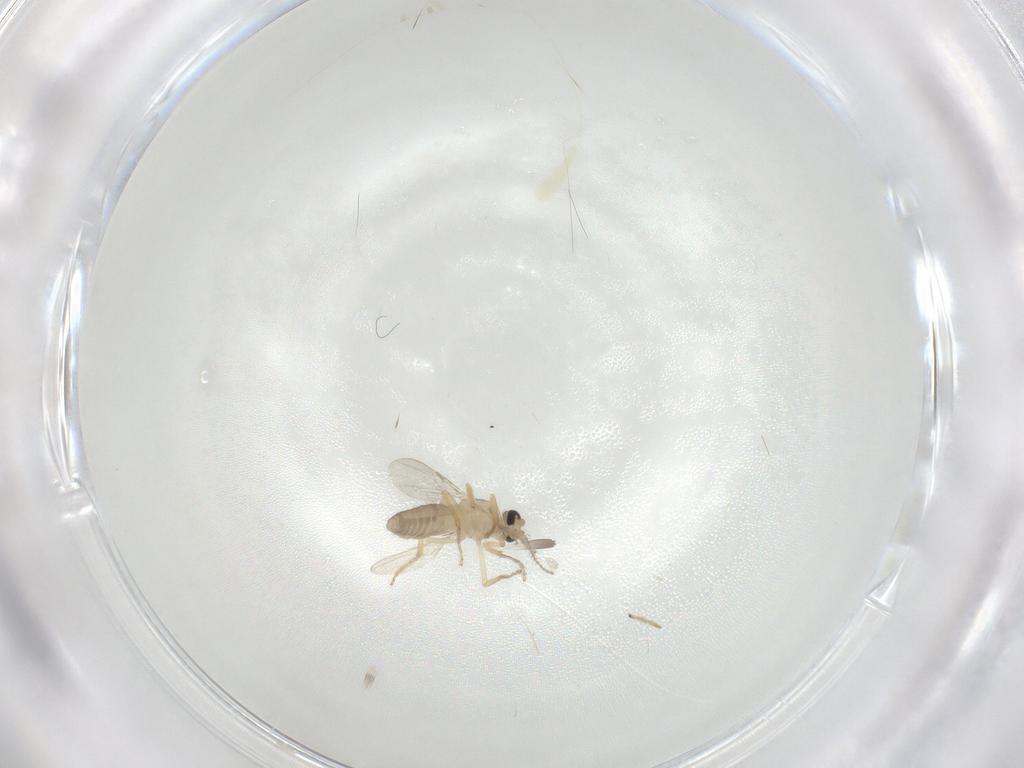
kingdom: Animalia
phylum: Arthropoda
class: Insecta
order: Diptera
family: Ceratopogonidae
